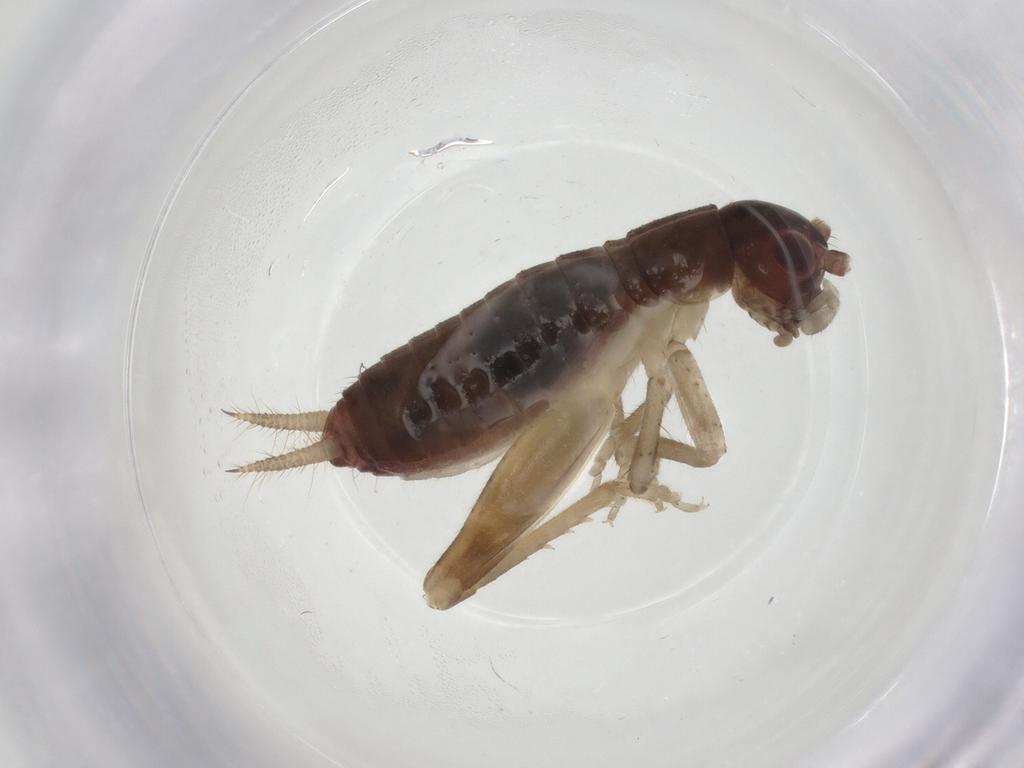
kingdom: Animalia
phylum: Arthropoda
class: Insecta
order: Orthoptera
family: Gryllidae
